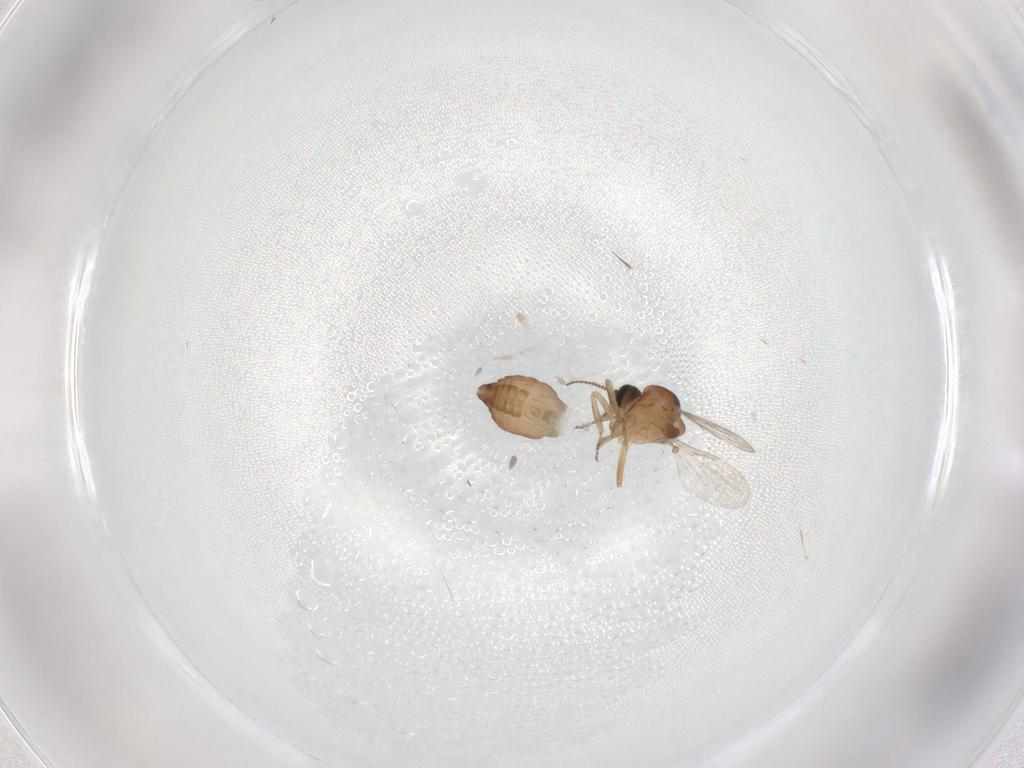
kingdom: Animalia
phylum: Arthropoda
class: Insecta
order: Diptera
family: Ceratopogonidae
